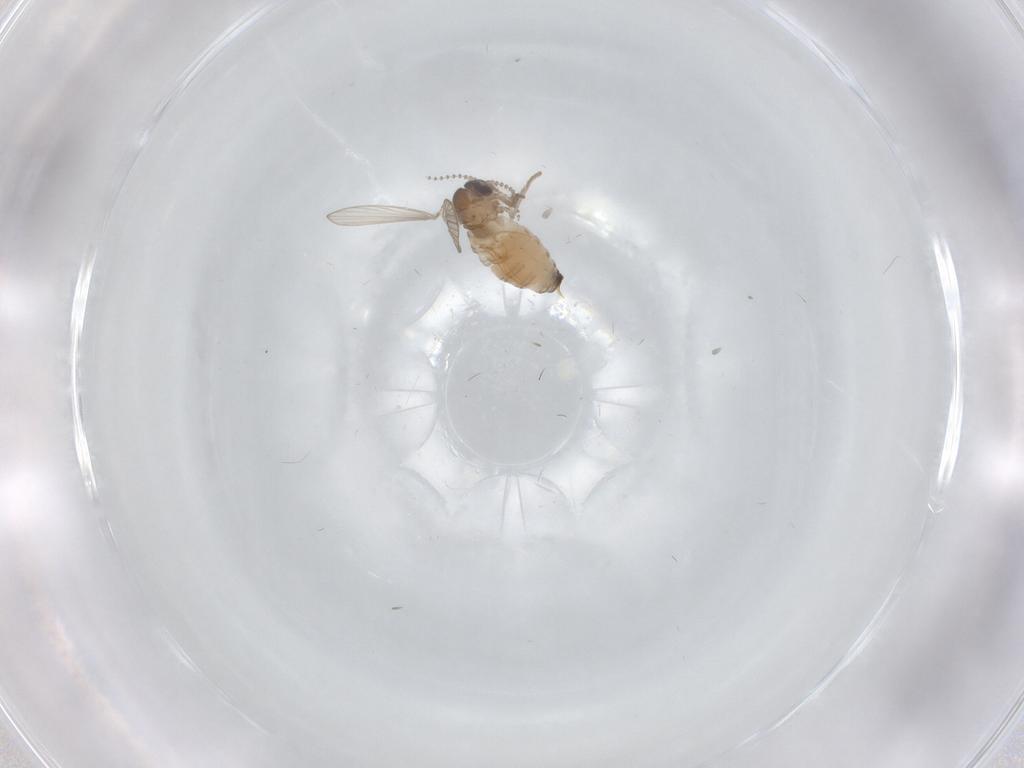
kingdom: Animalia
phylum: Arthropoda
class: Insecta
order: Diptera
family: Psychodidae
